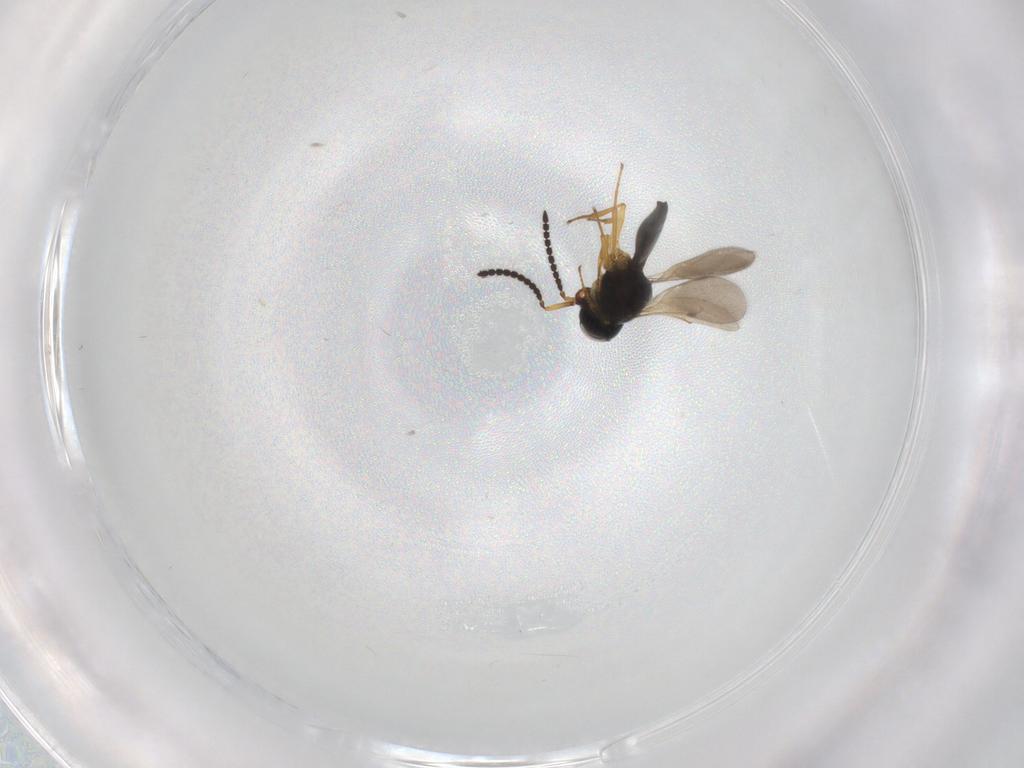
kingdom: Animalia
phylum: Arthropoda
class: Insecta
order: Hymenoptera
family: Scelionidae
